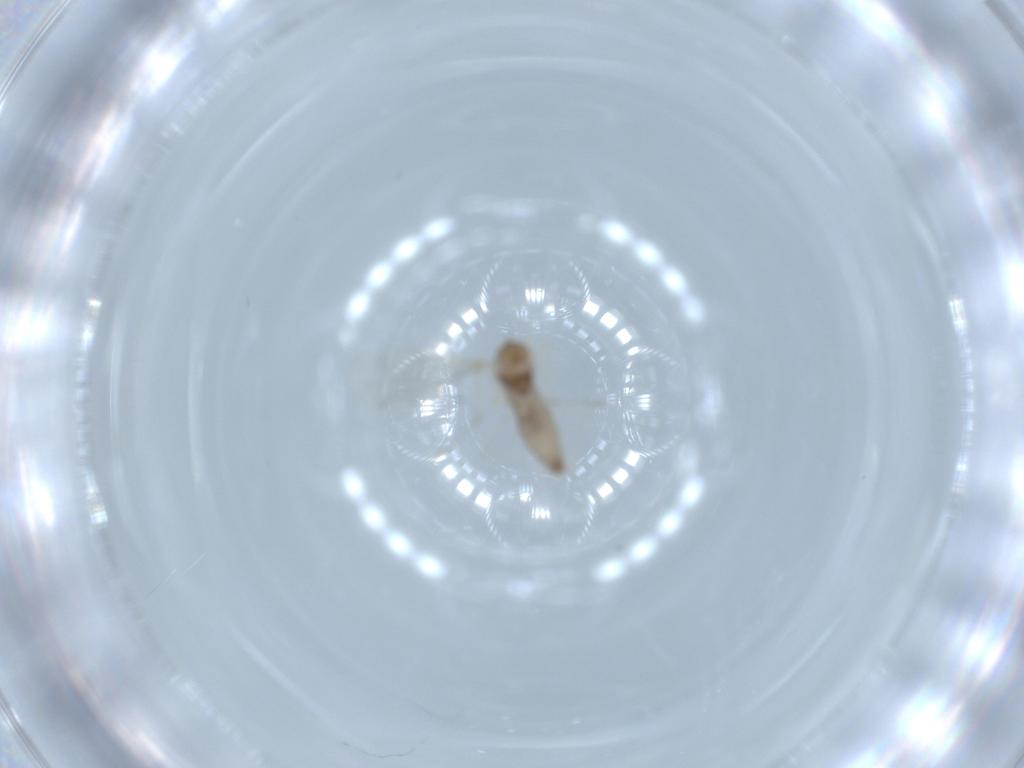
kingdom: Animalia
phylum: Arthropoda
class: Insecta
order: Diptera
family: Cecidomyiidae
